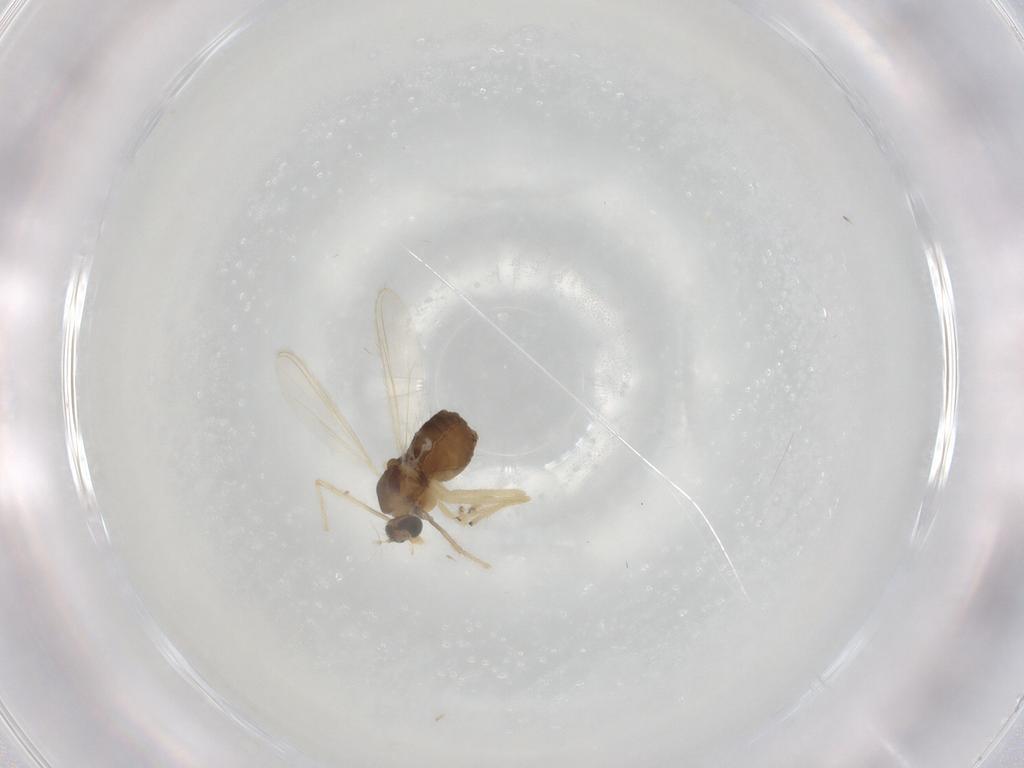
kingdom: Animalia
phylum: Arthropoda
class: Insecta
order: Diptera
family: Chironomidae
